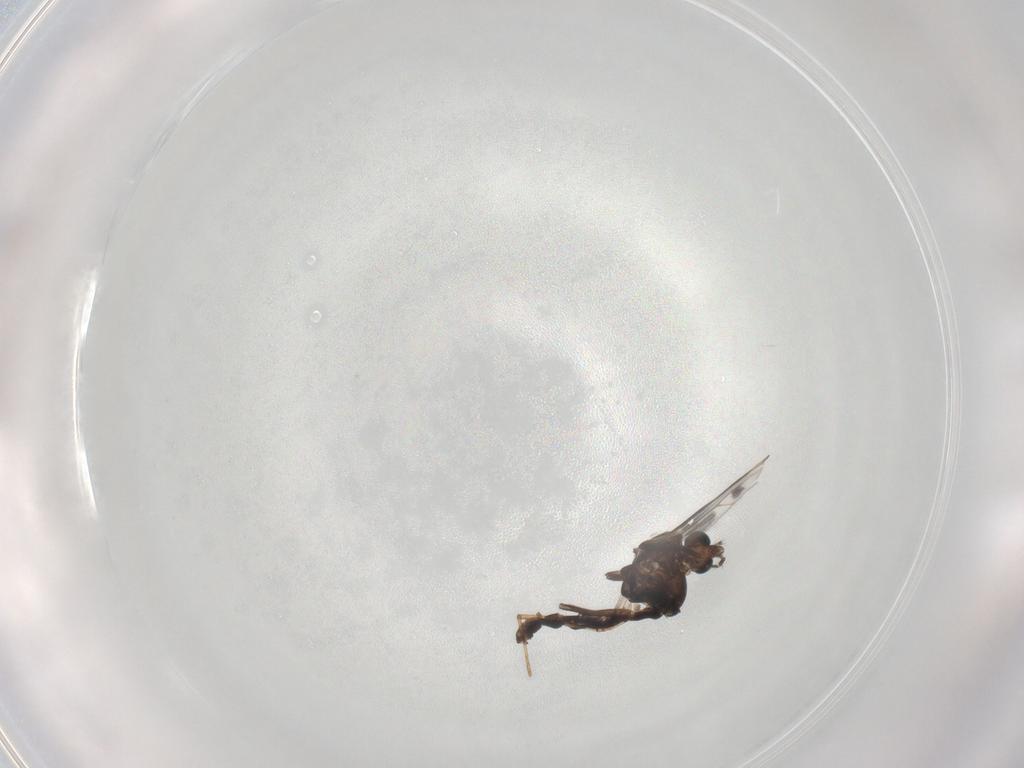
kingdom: Animalia
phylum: Arthropoda
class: Insecta
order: Diptera
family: Chironomidae
